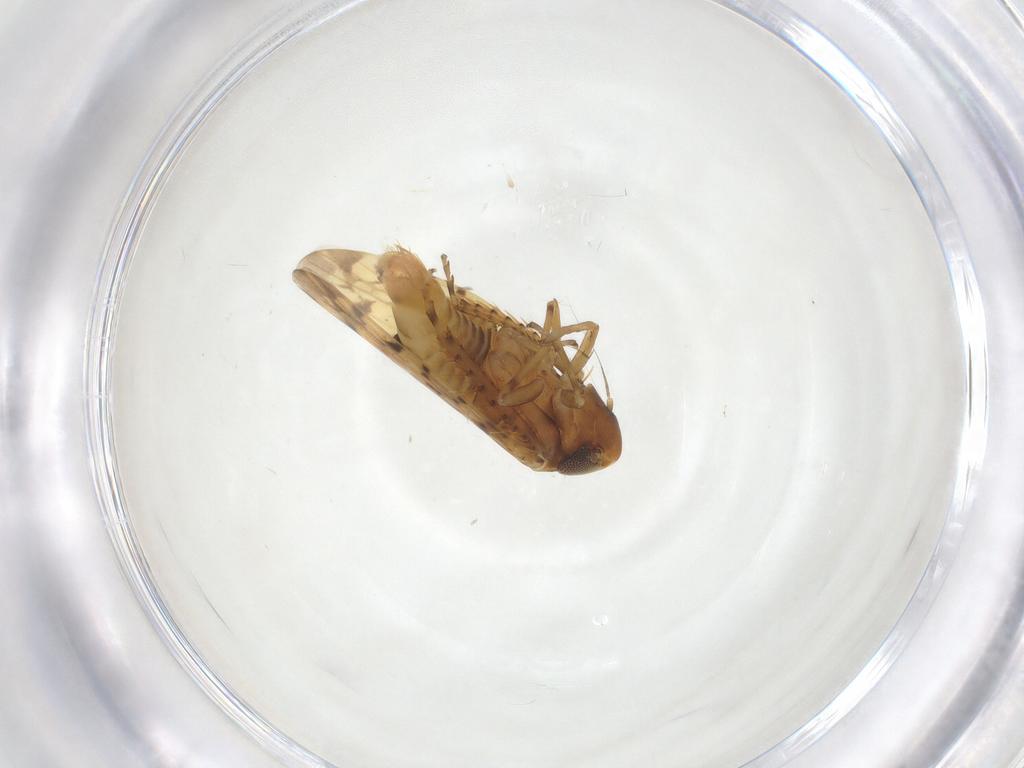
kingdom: Animalia
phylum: Arthropoda
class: Insecta
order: Hemiptera
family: Cicadellidae
